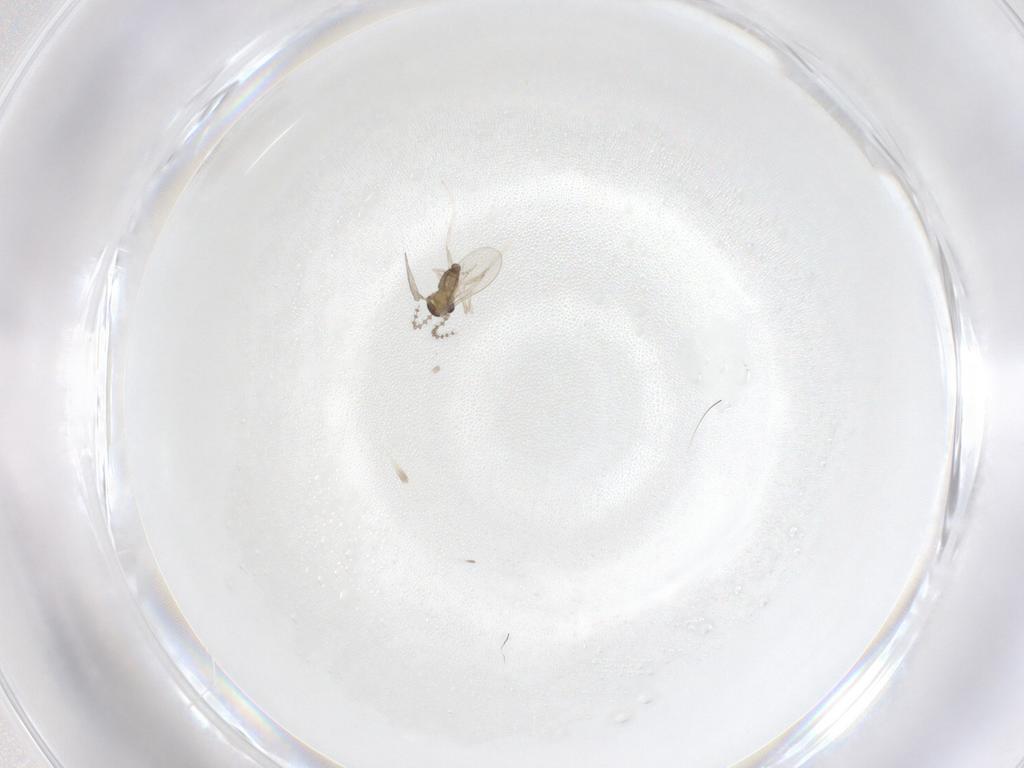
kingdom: Animalia
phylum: Arthropoda
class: Insecta
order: Diptera
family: Cecidomyiidae
